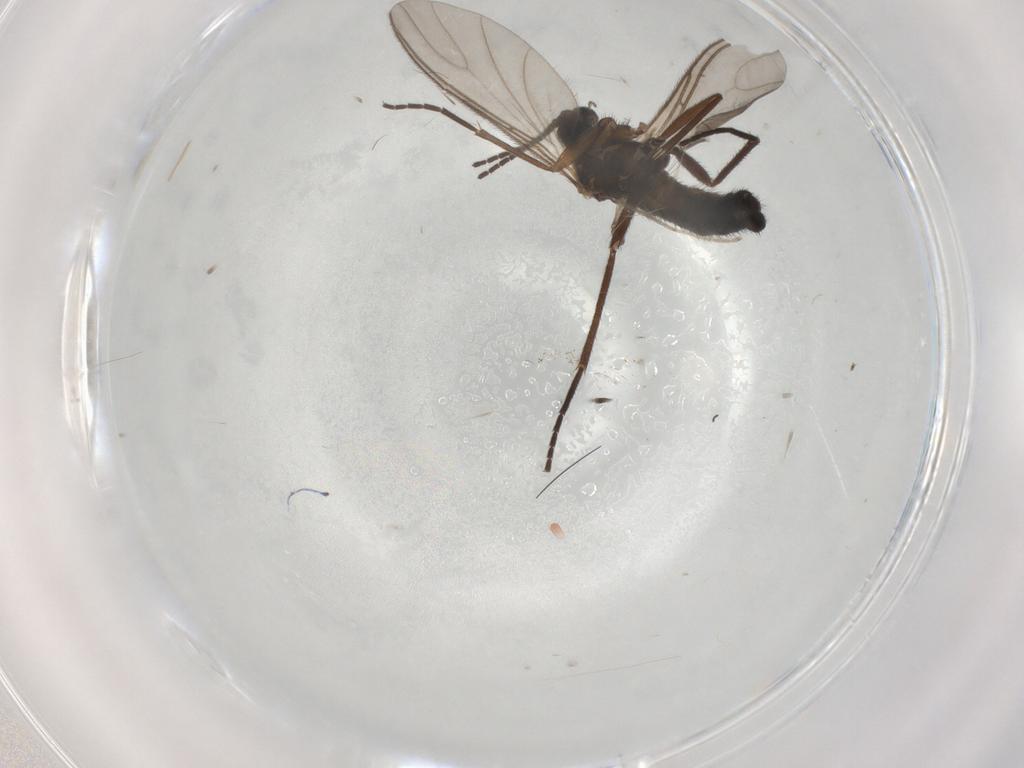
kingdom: Animalia
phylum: Arthropoda
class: Insecta
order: Diptera
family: Sciaridae
